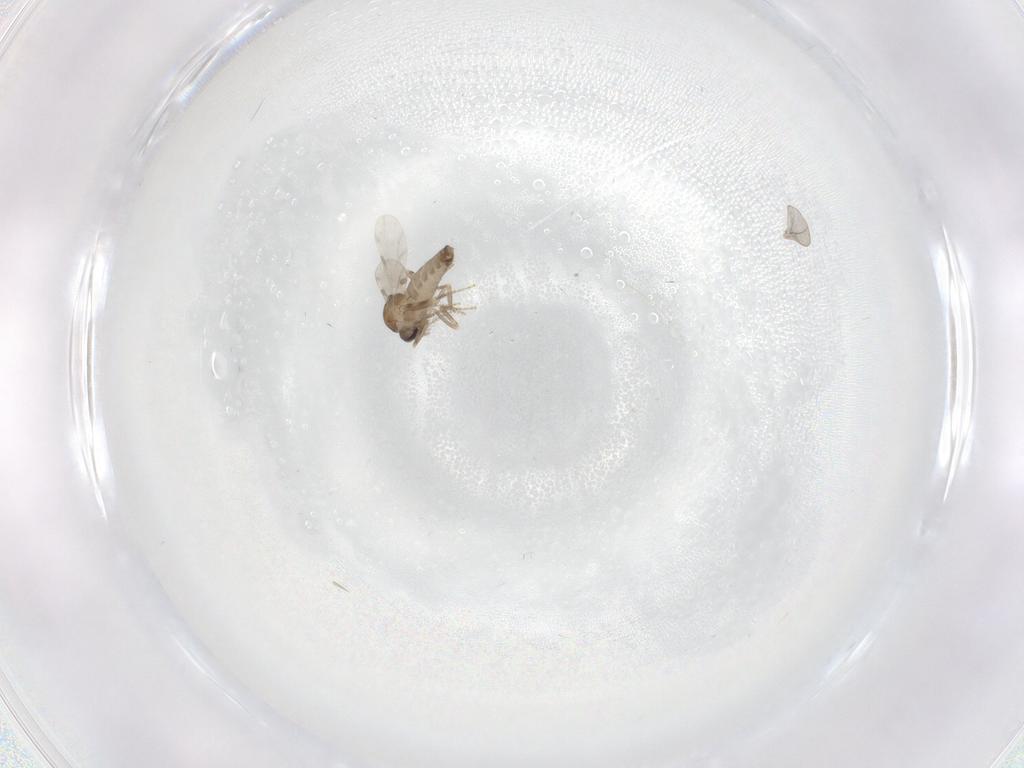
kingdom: Animalia
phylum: Arthropoda
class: Insecta
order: Diptera
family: Ceratopogonidae
